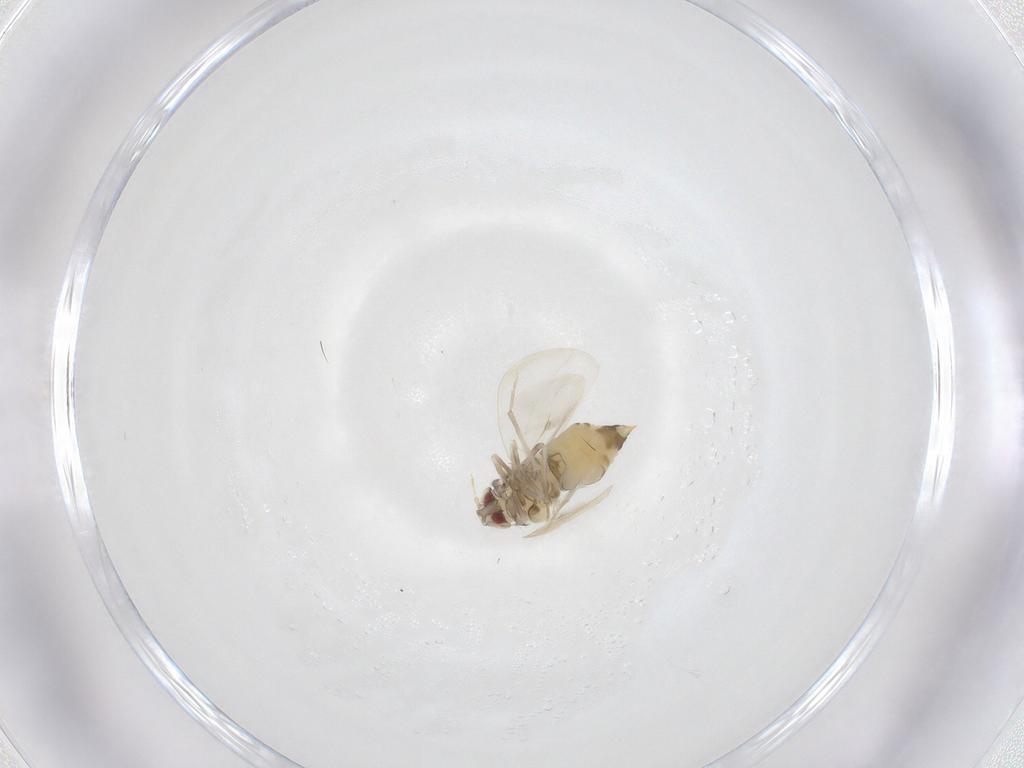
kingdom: Animalia
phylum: Arthropoda
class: Insecta
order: Hemiptera
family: Aleyrodidae
